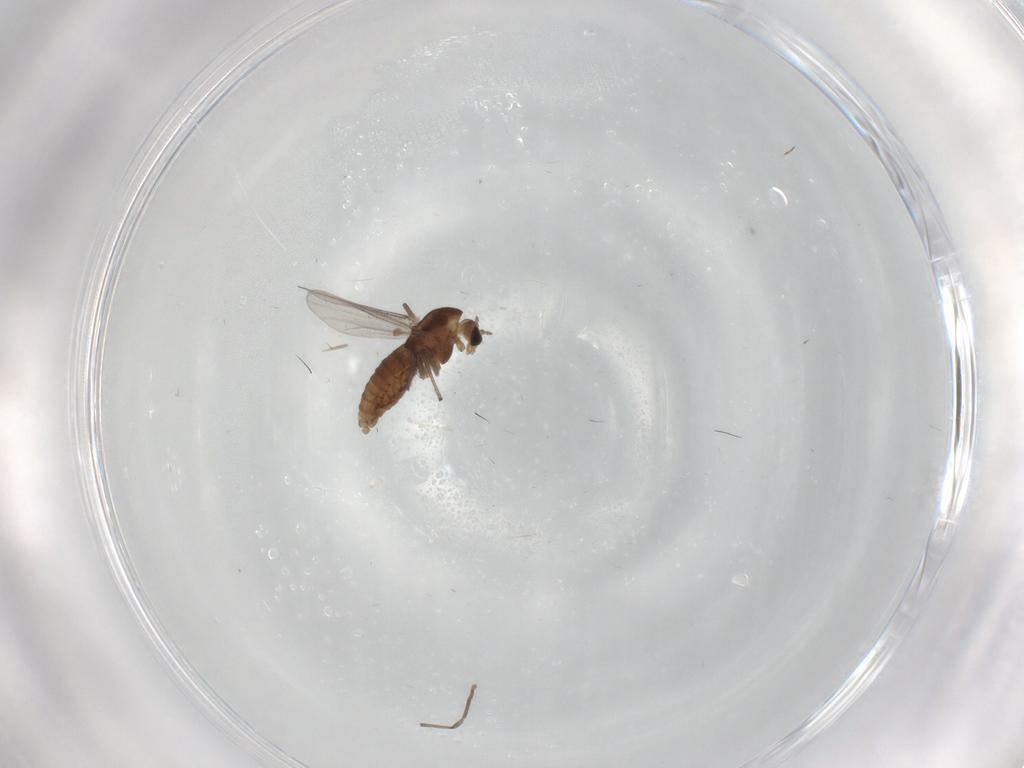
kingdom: Animalia
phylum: Arthropoda
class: Insecta
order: Diptera
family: Chironomidae
